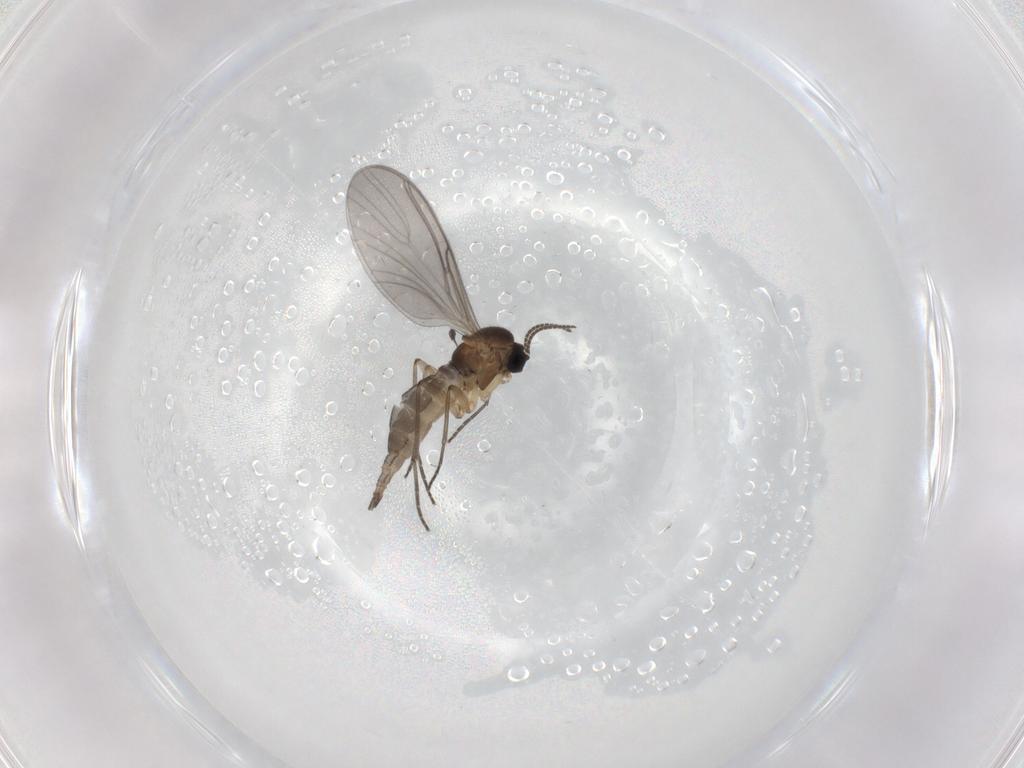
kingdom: Animalia
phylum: Arthropoda
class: Insecta
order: Diptera
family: Sciaridae
